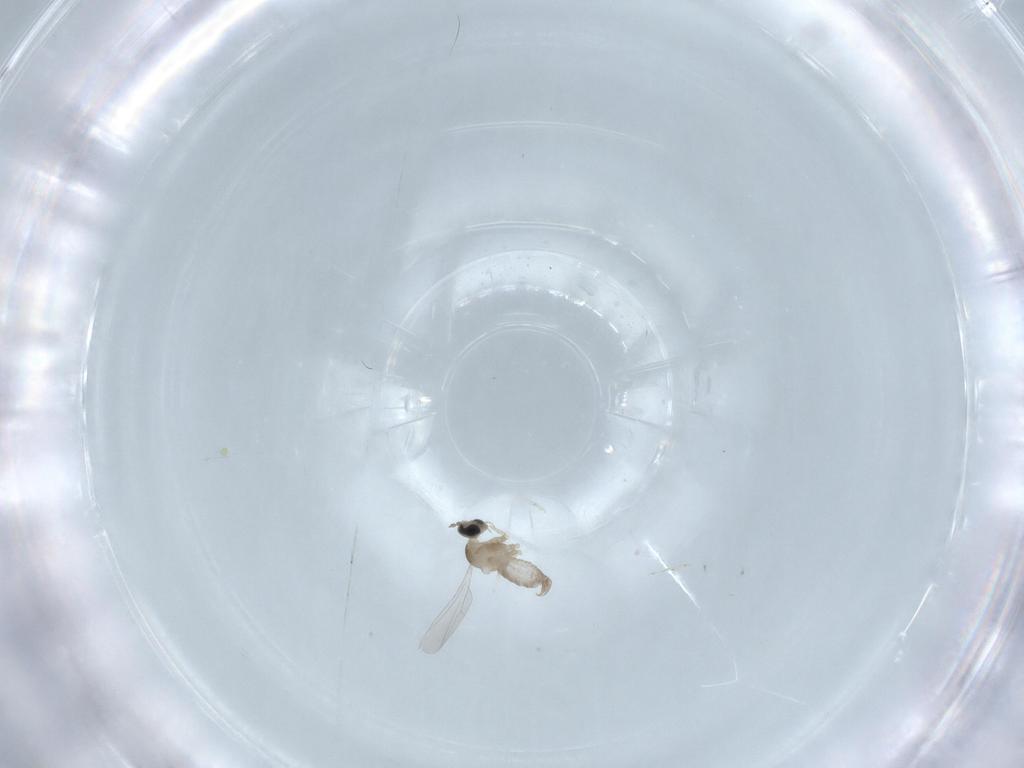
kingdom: Animalia
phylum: Arthropoda
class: Insecta
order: Diptera
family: Cecidomyiidae
